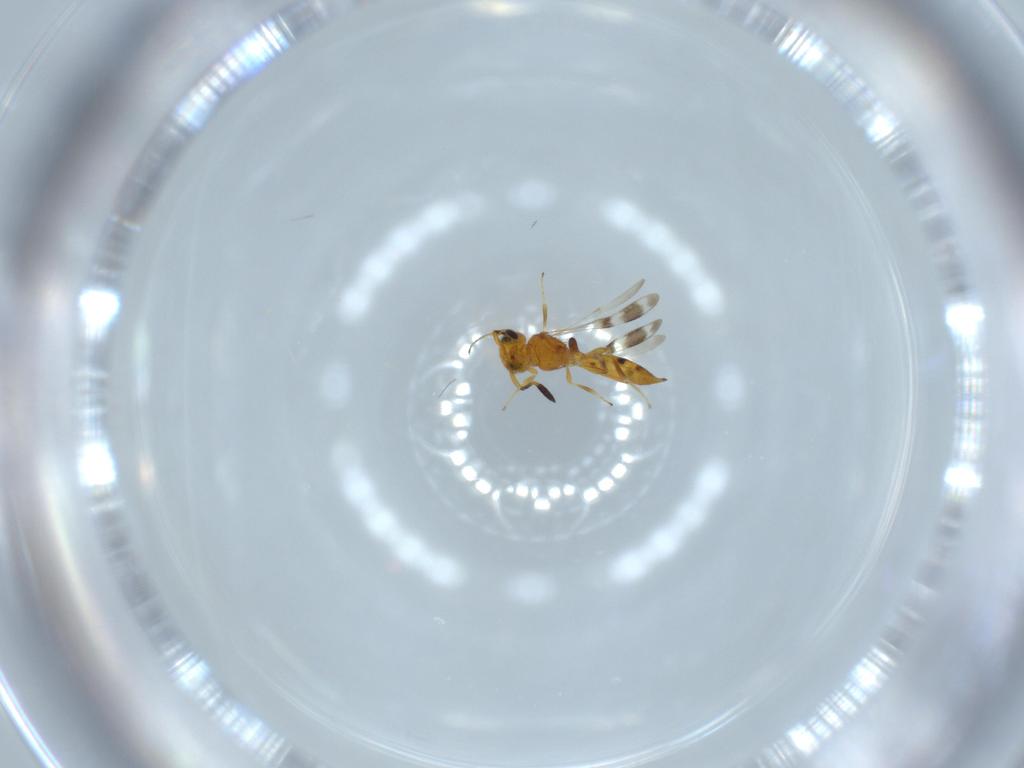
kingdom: Animalia
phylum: Arthropoda
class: Insecta
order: Hymenoptera
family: Scelionidae
